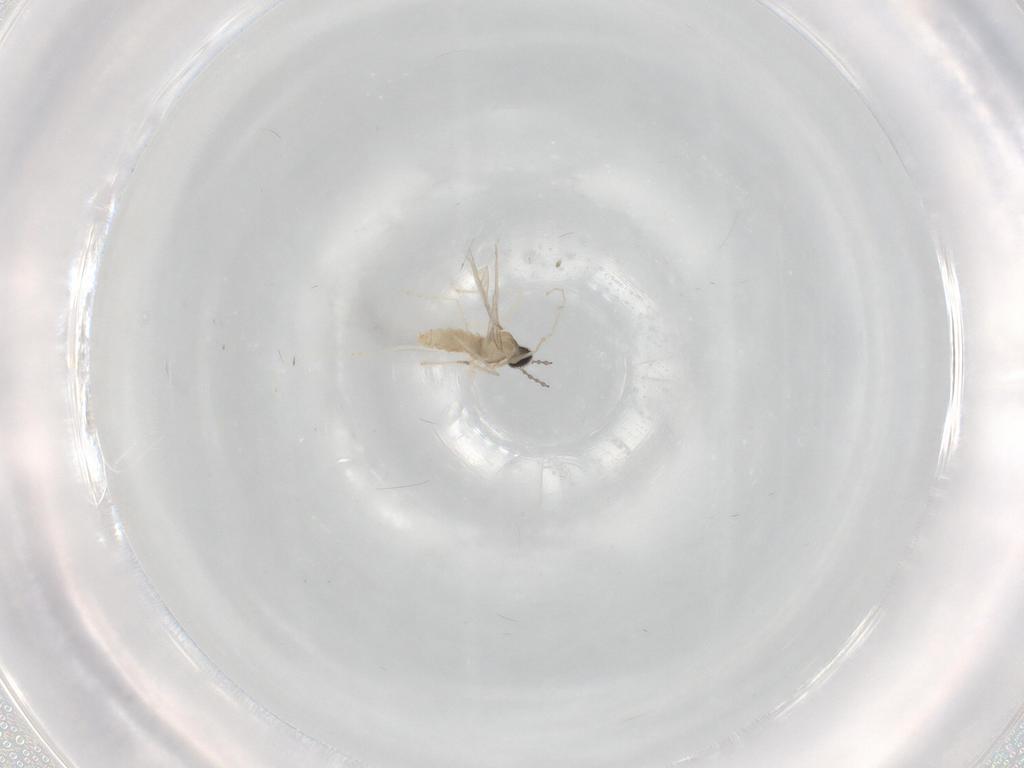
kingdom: Animalia
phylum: Arthropoda
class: Insecta
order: Diptera
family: Cecidomyiidae
